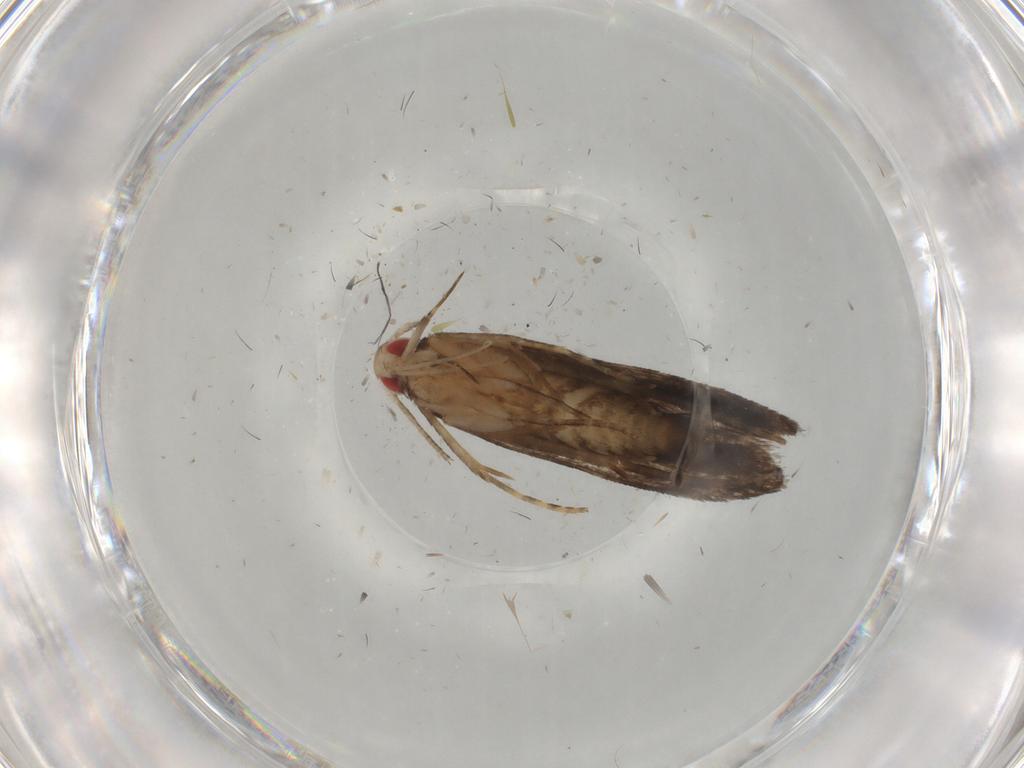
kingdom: Animalia
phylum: Arthropoda
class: Insecta
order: Lepidoptera
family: Gelechiidae
